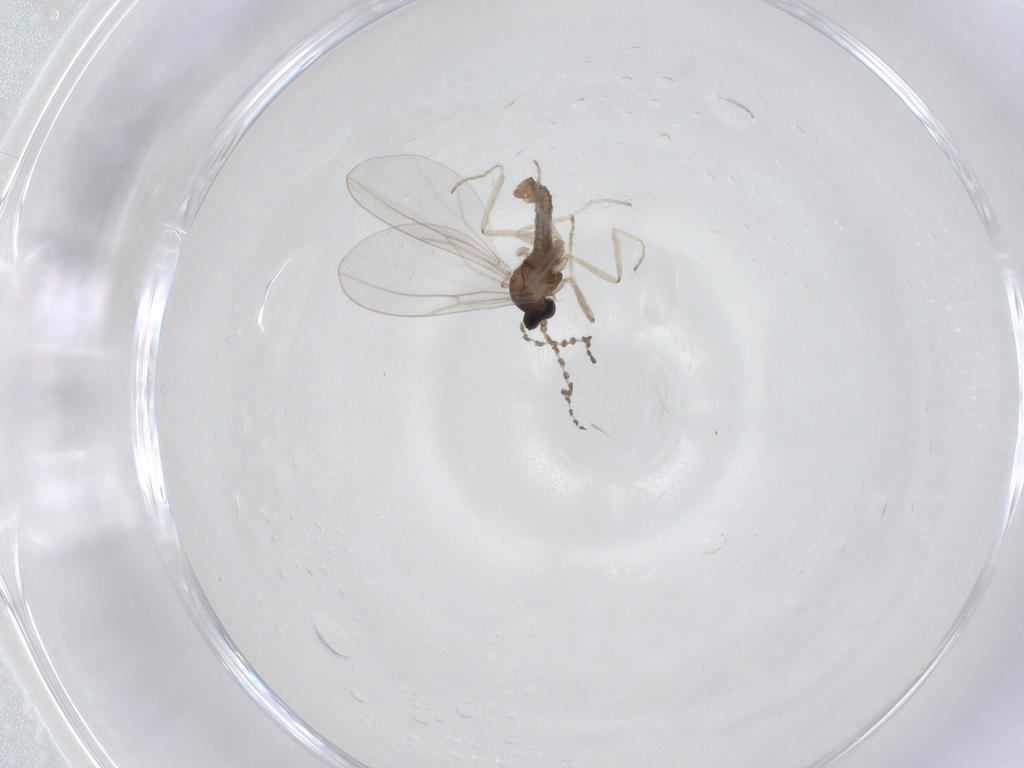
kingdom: Animalia
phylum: Arthropoda
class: Insecta
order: Diptera
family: Cecidomyiidae
